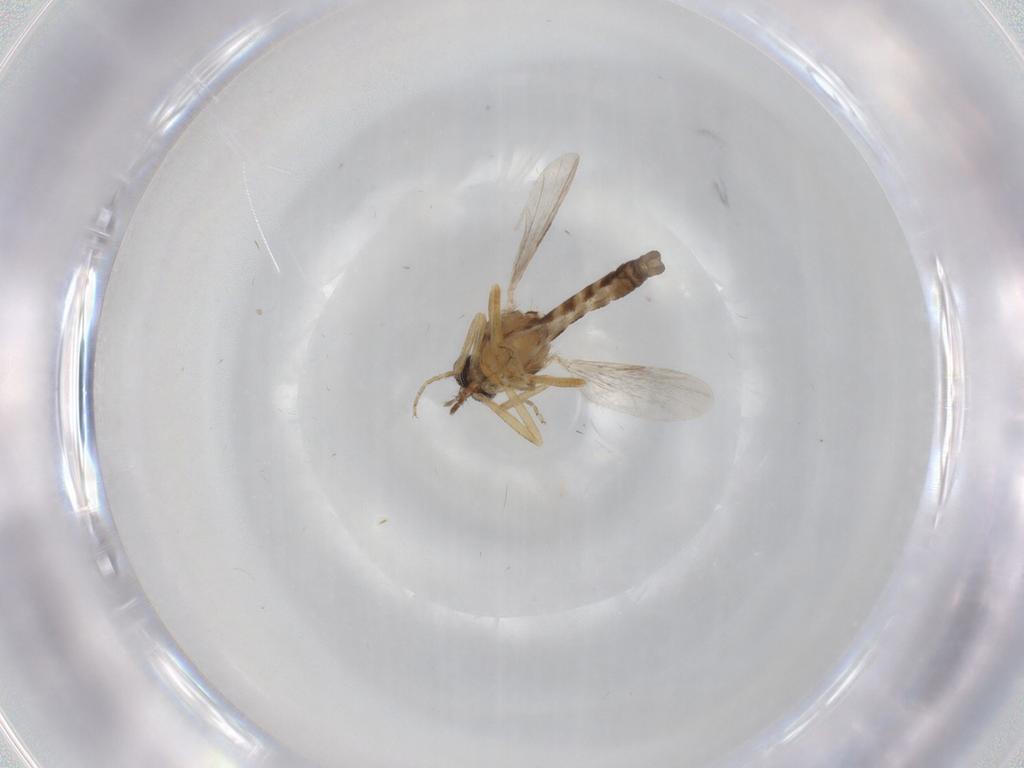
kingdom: Animalia
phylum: Arthropoda
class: Insecta
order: Diptera
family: Ceratopogonidae
